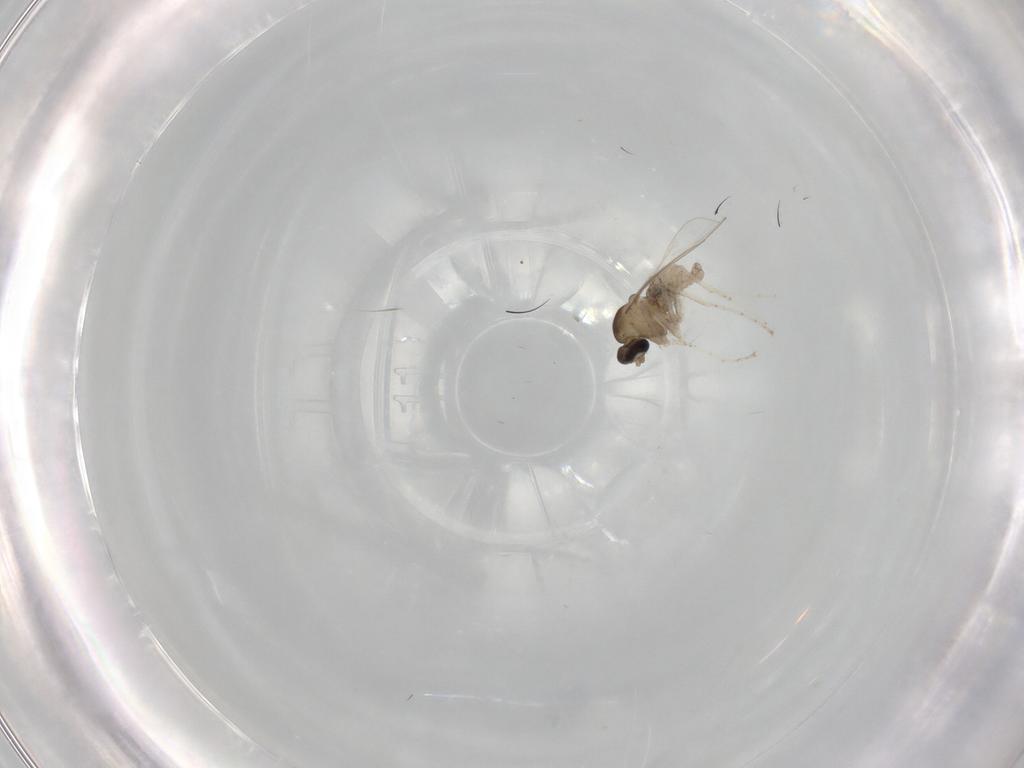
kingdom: Animalia
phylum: Arthropoda
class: Insecta
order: Diptera
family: Cecidomyiidae
